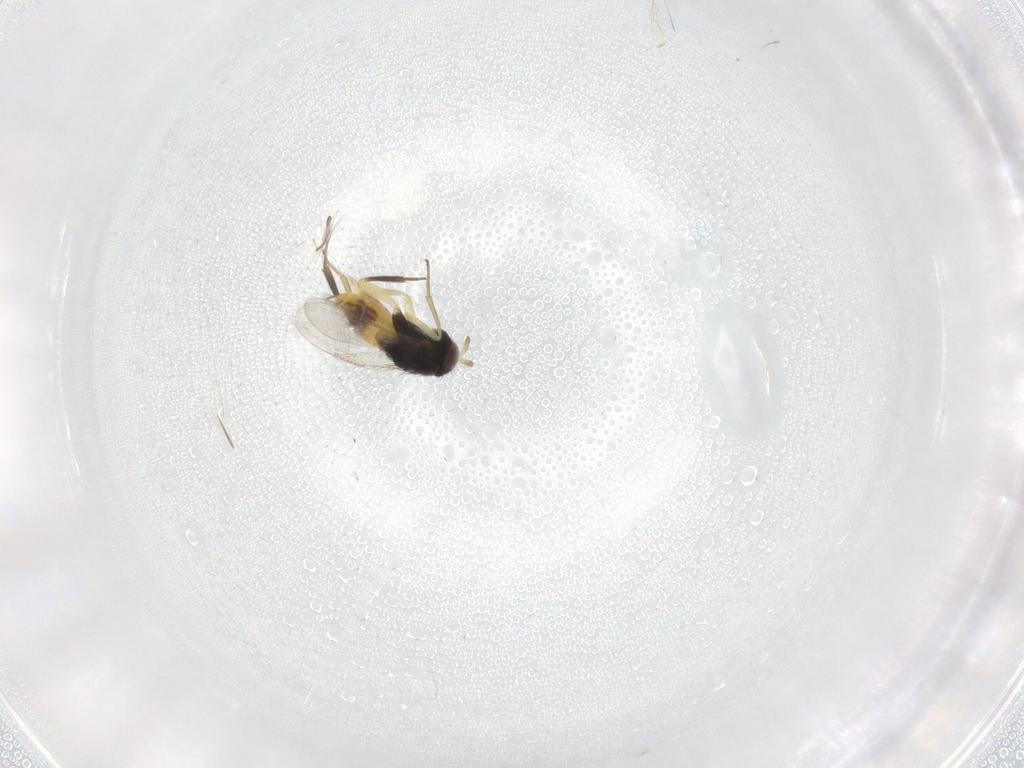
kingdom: Animalia
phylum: Arthropoda
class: Insecta
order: Hymenoptera
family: Aphelinidae
